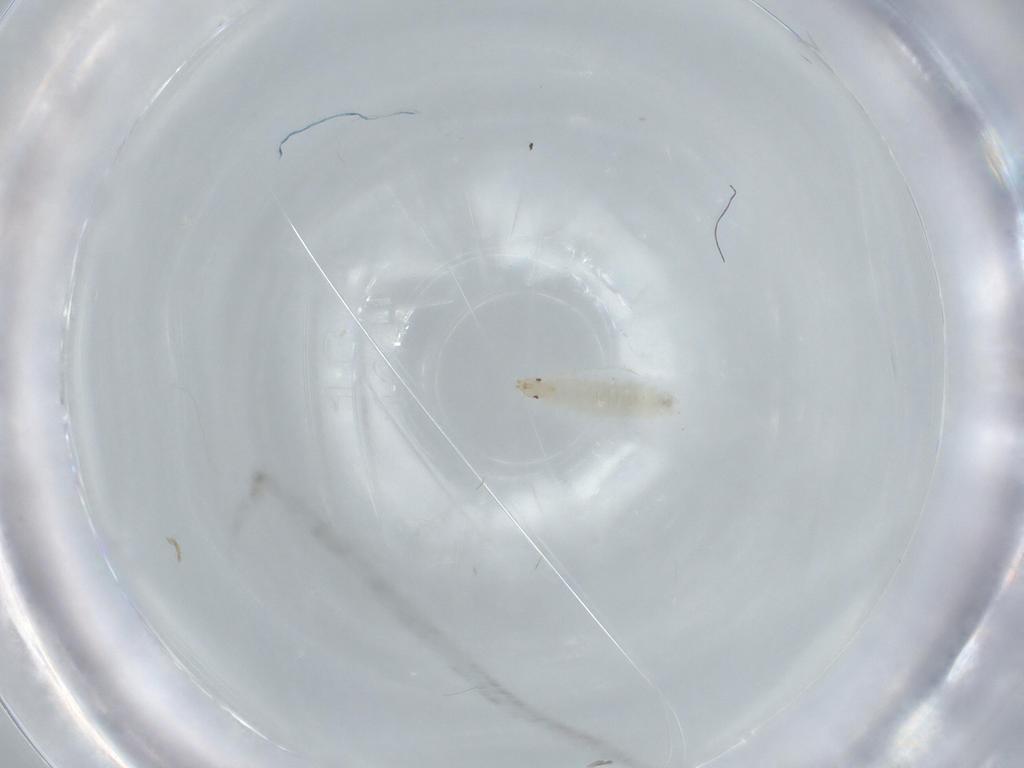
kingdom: Animalia
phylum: Arthropoda
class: Insecta
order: Diptera
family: Stratiomyidae
